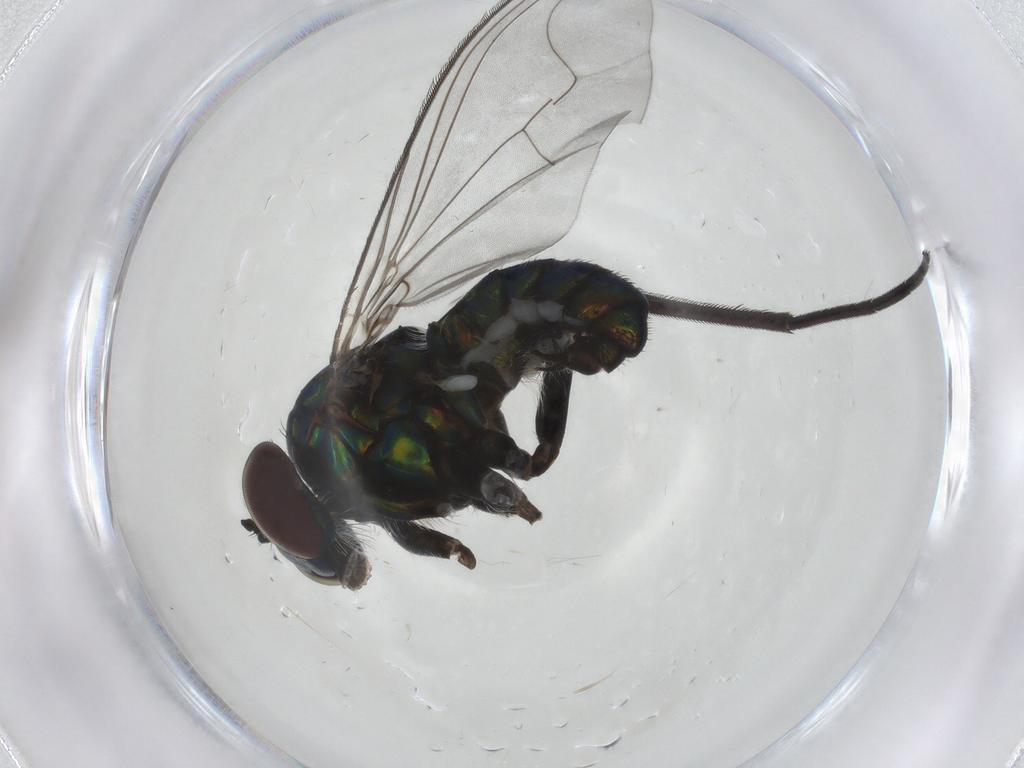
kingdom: Animalia
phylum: Arthropoda
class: Insecta
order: Diptera
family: Dolichopodidae
